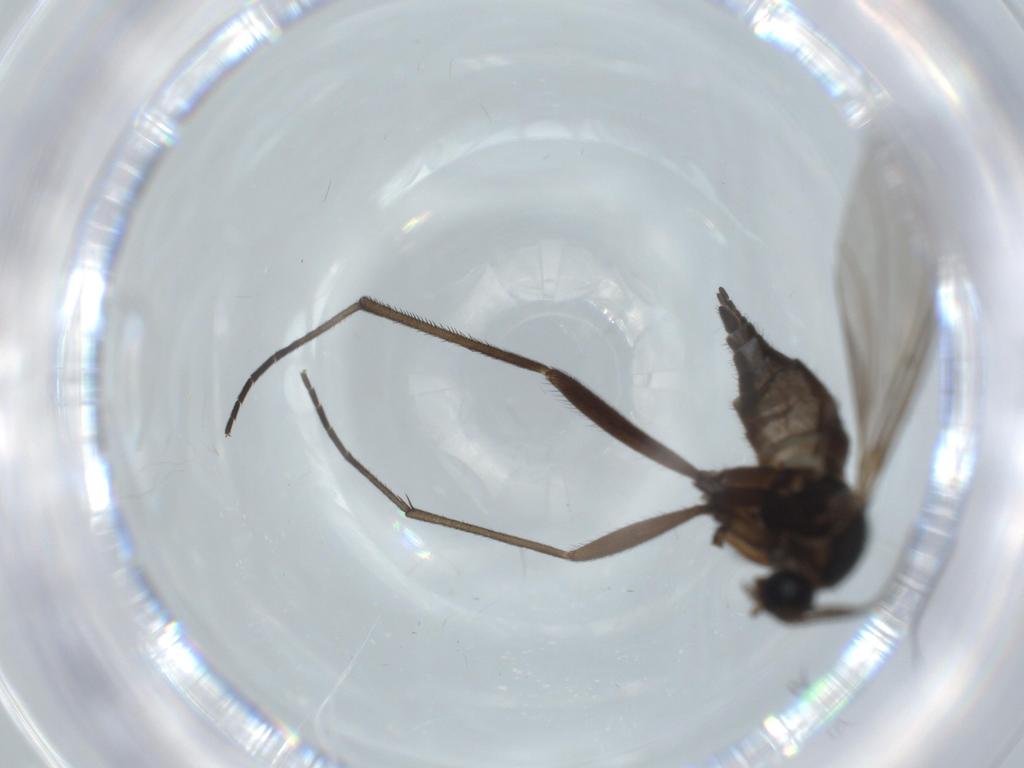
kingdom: Animalia
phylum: Arthropoda
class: Insecta
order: Diptera
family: Sciaridae
